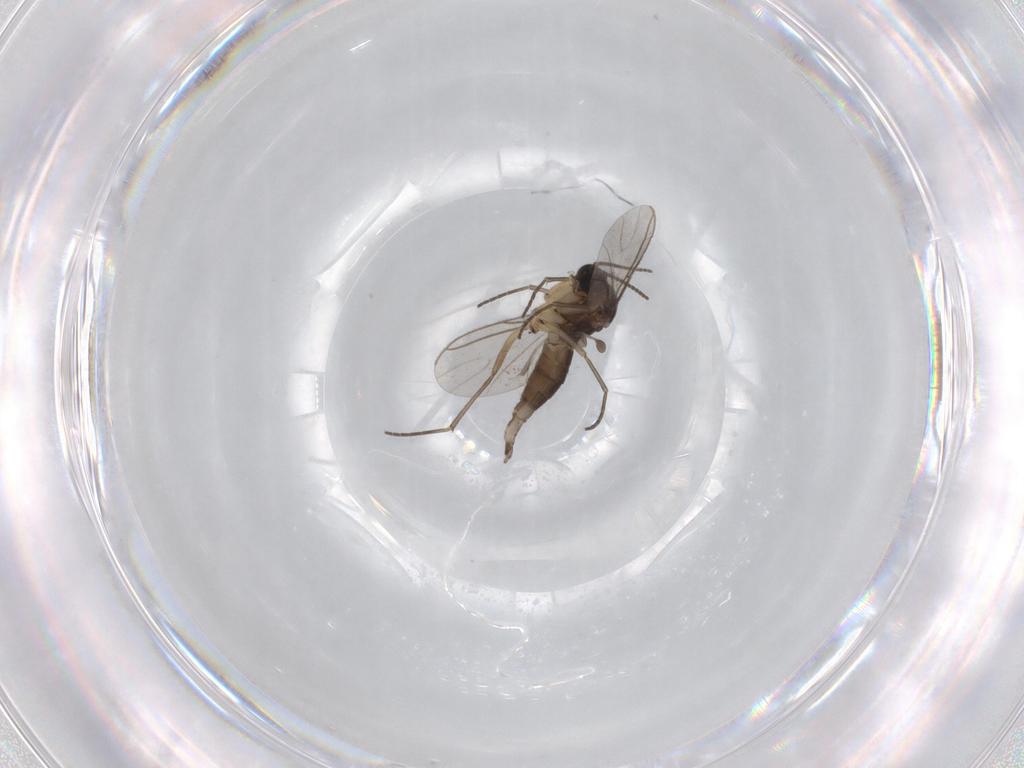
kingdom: Animalia
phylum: Arthropoda
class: Insecta
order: Diptera
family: Sciaridae
